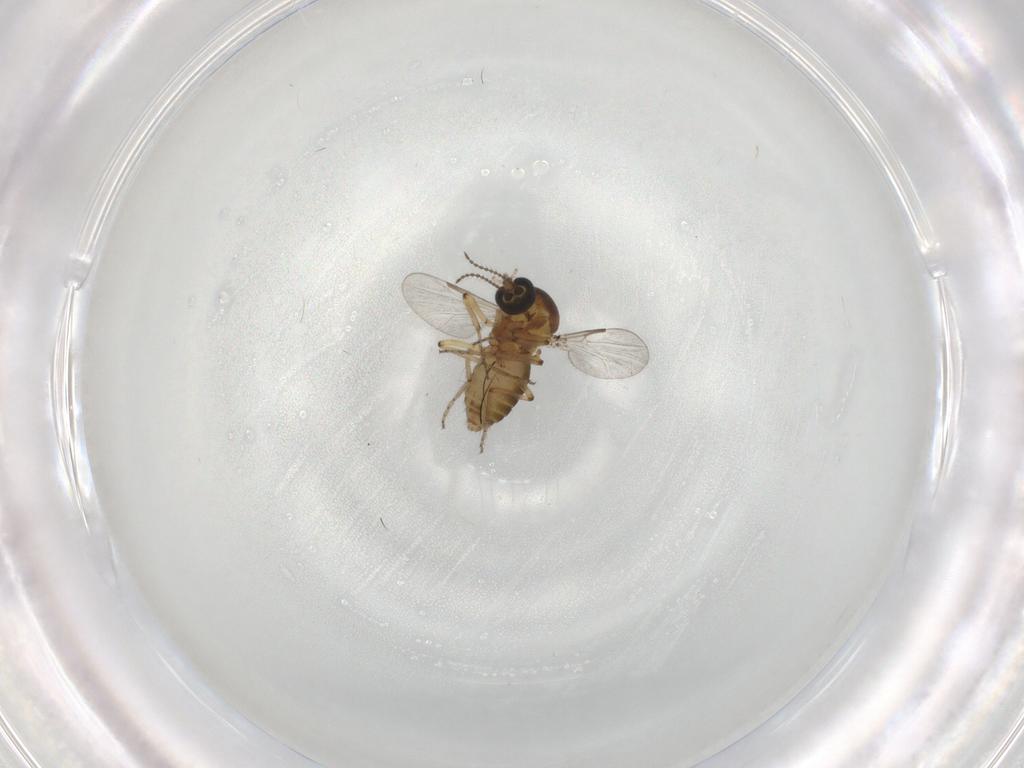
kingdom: Animalia
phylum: Arthropoda
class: Insecta
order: Diptera
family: Ceratopogonidae
